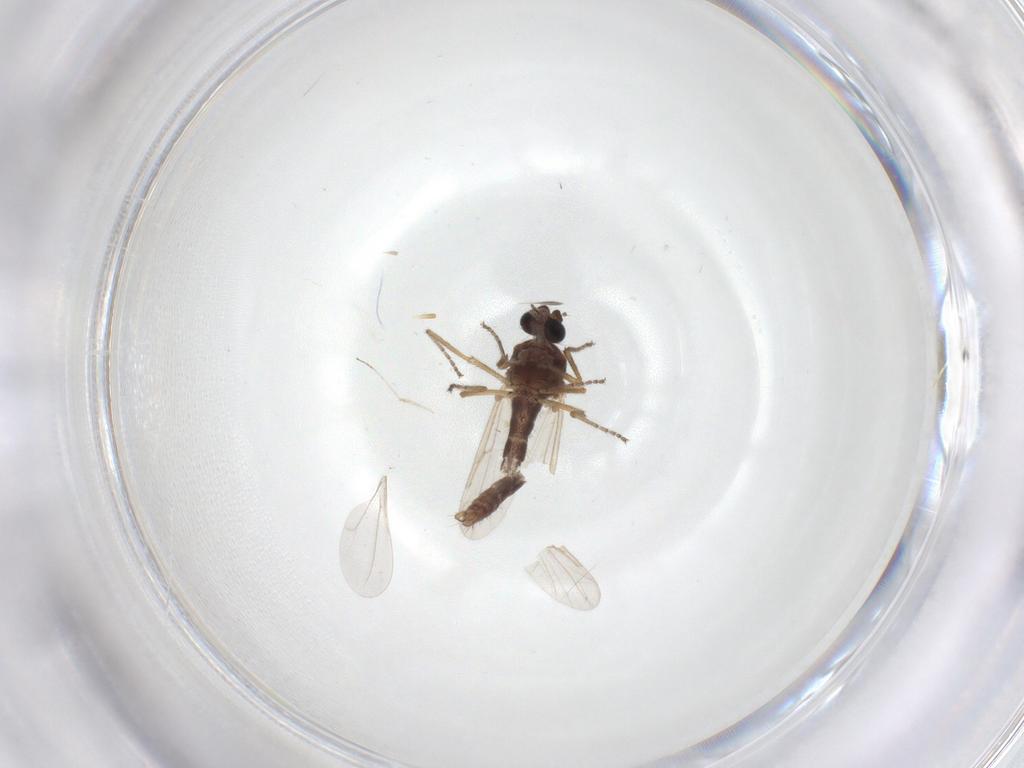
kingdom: Animalia
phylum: Arthropoda
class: Insecta
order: Diptera
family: Ceratopogonidae
